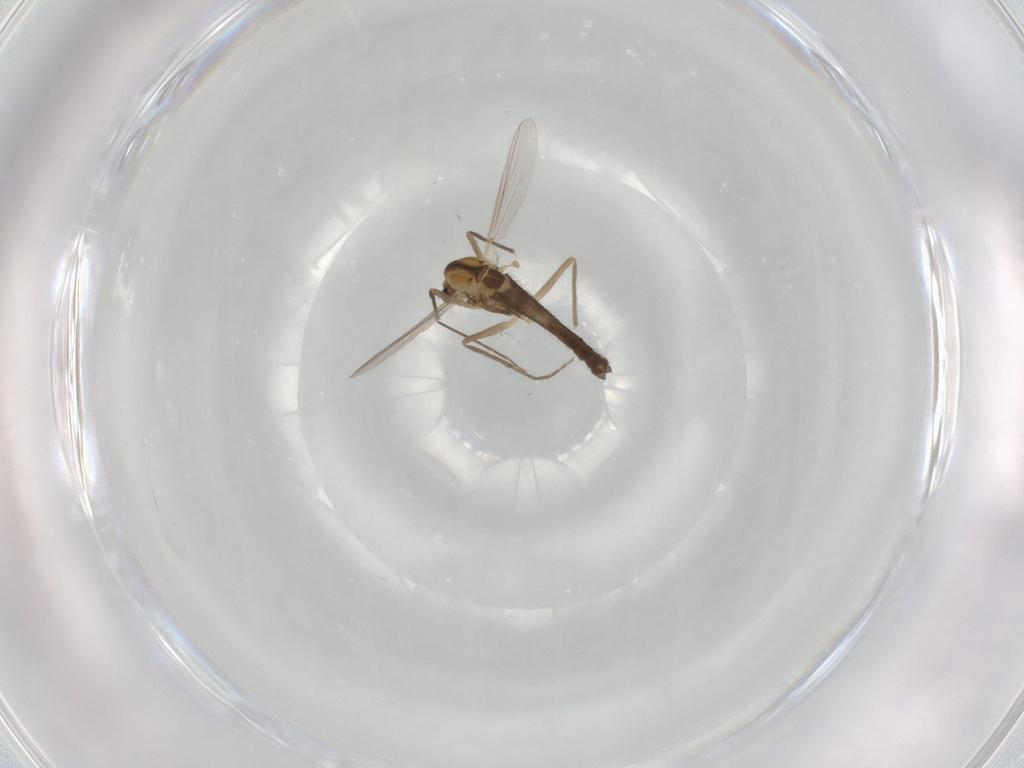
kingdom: Animalia
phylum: Arthropoda
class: Insecta
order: Diptera
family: Chironomidae
